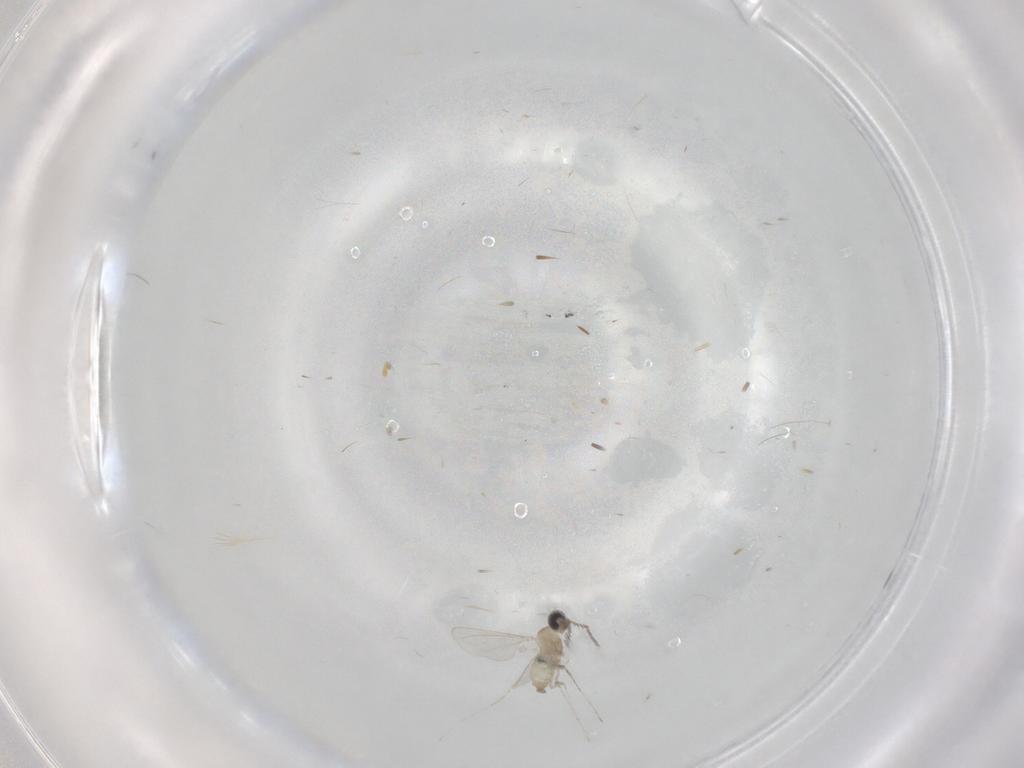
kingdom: Animalia
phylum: Arthropoda
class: Insecta
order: Diptera
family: Cecidomyiidae
